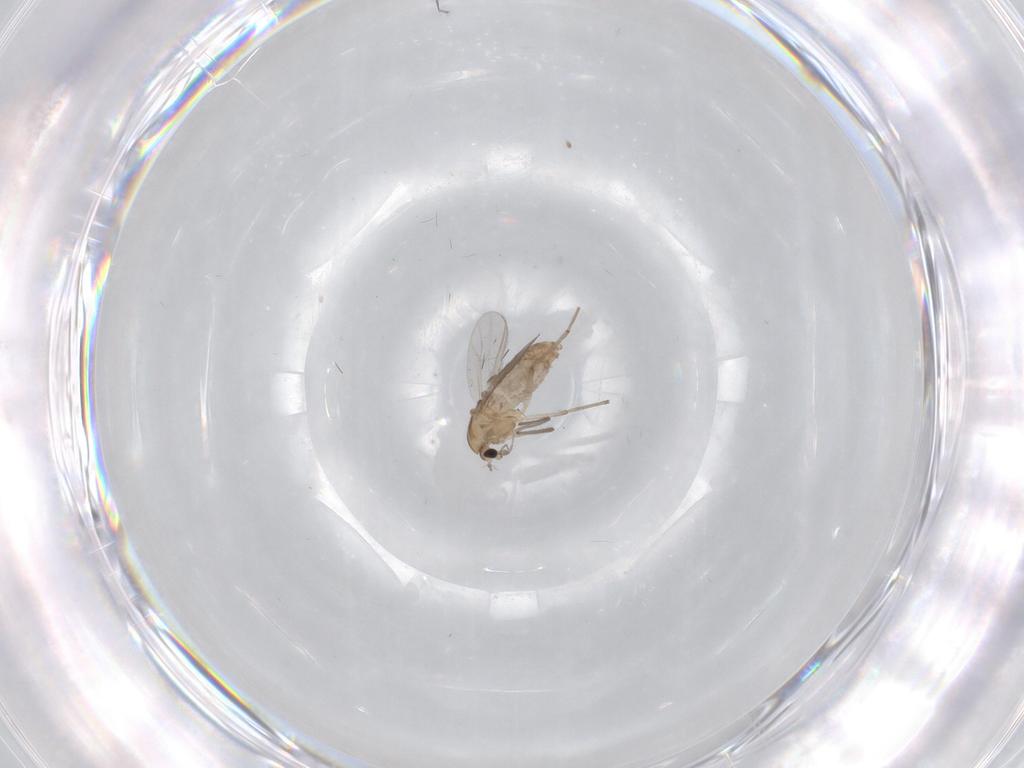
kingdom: Animalia
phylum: Arthropoda
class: Insecta
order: Diptera
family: Chironomidae
